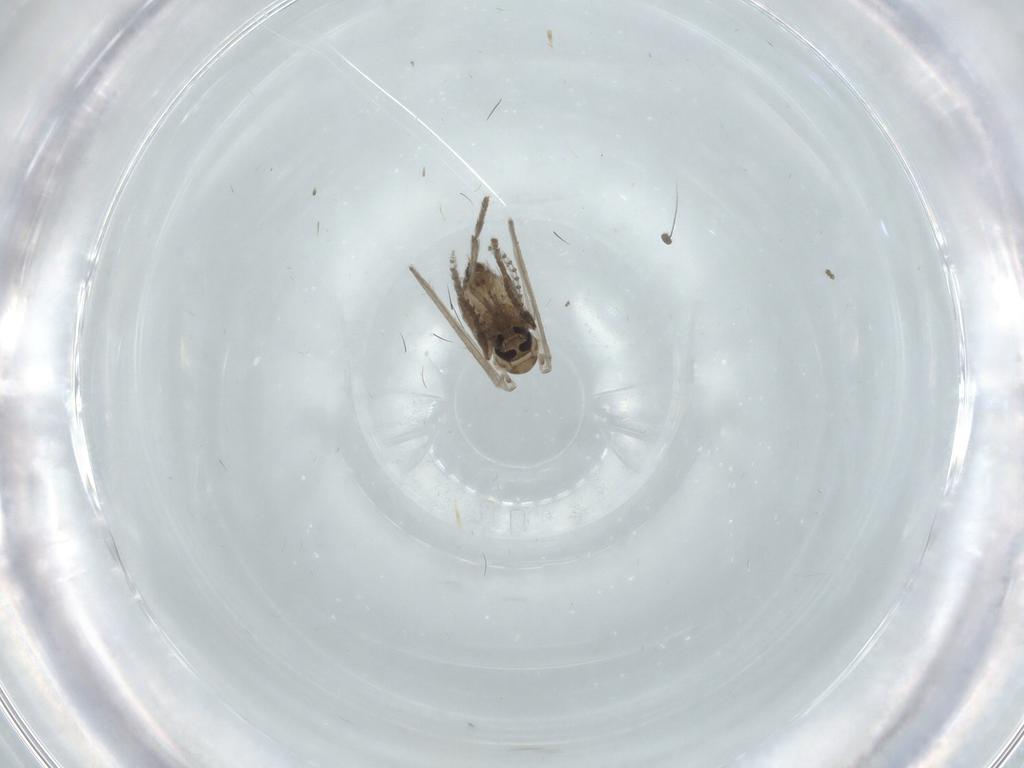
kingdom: Animalia
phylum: Arthropoda
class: Insecta
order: Diptera
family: Psychodidae
